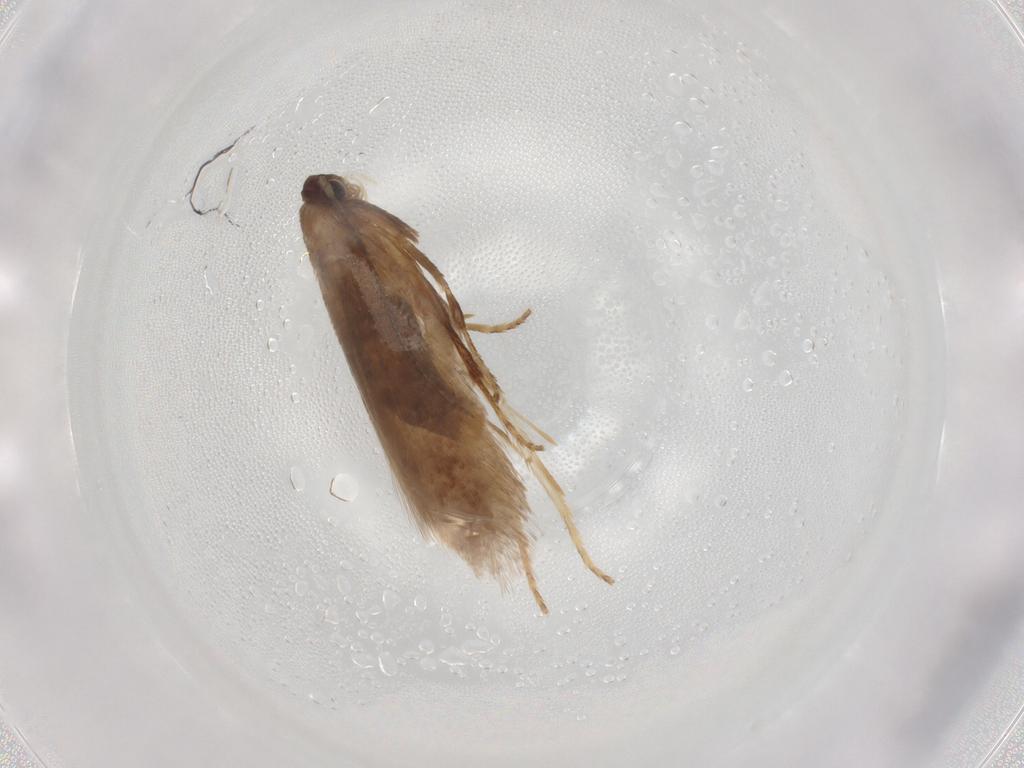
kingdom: Animalia
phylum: Arthropoda
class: Insecta
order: Lepidoptera
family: Nepticulidae
